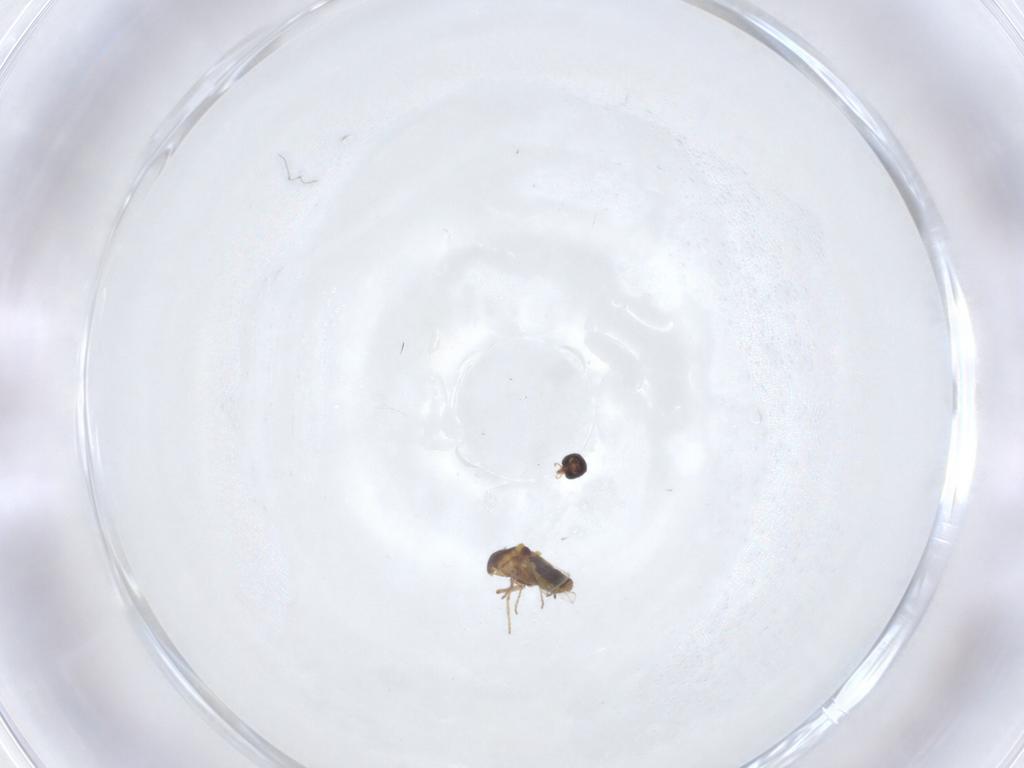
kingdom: Animalia
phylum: Arthropoda
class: Insecta
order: Diptera
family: Ceratopogonidae
